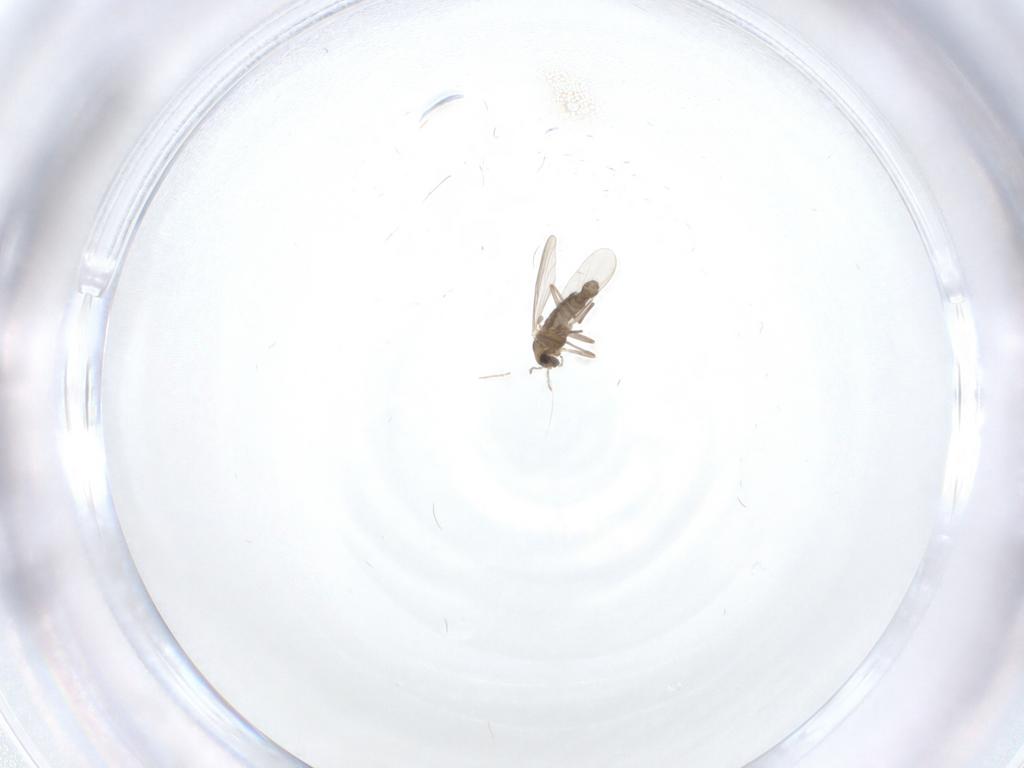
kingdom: Animalia
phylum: Arthropoda
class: Insecta
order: Diptera
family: Chironomidae
